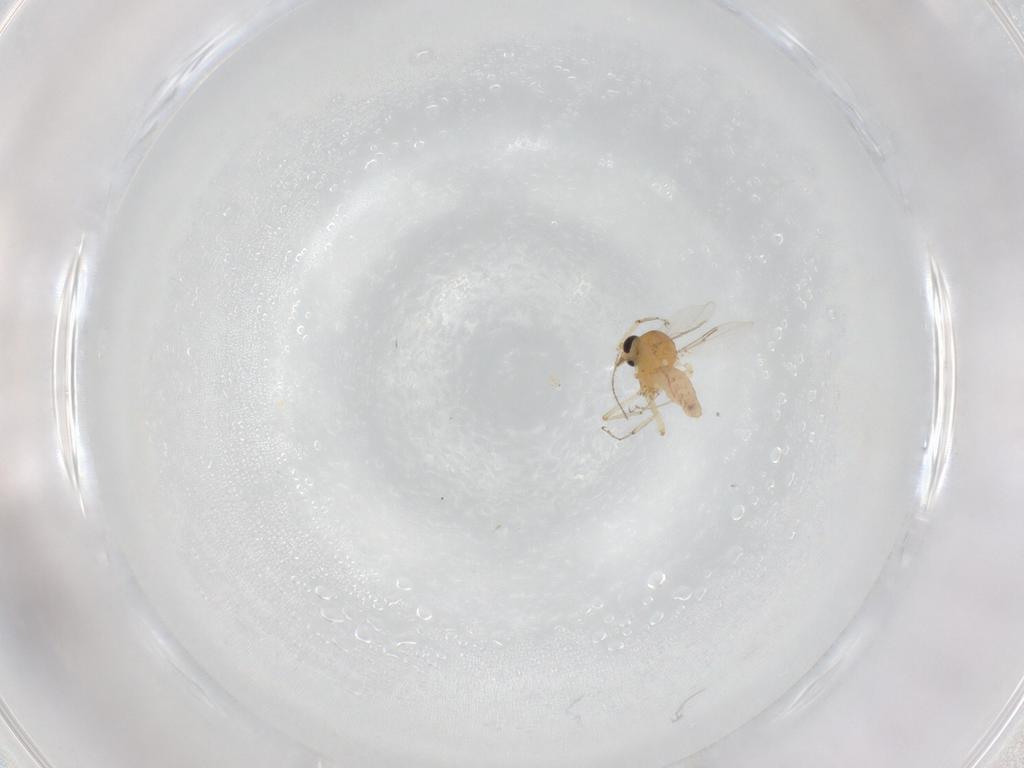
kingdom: Animalia
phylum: Arthropoda
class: Insecta
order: Diptera
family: Ceratopogonidae
